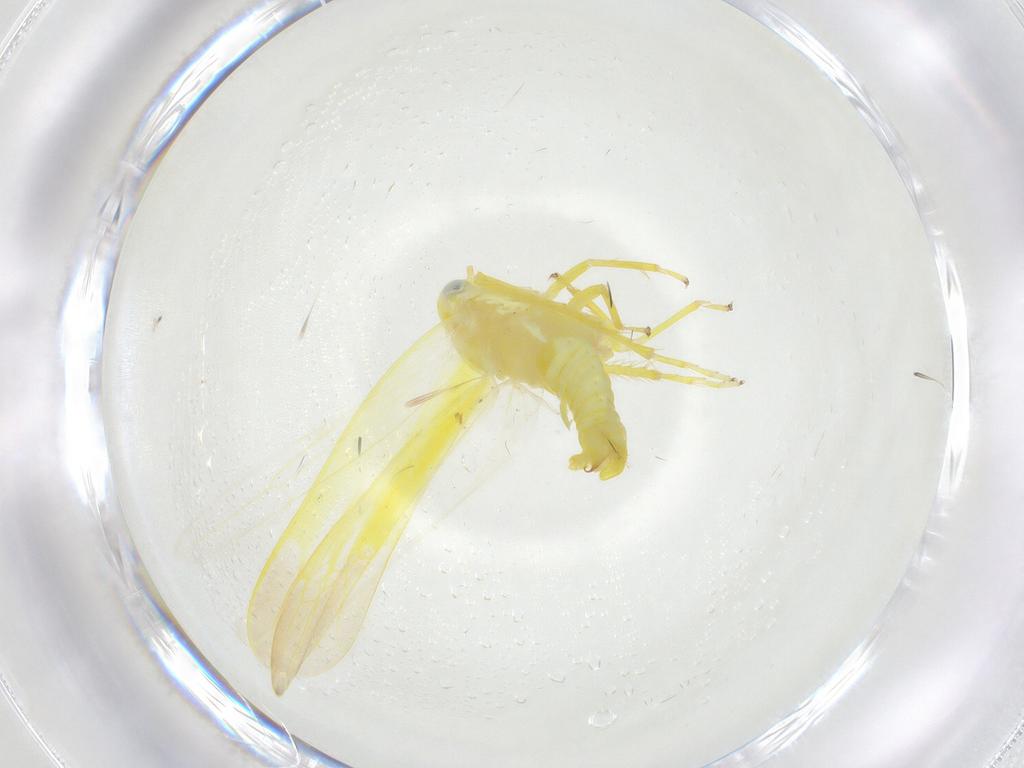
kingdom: Animalia
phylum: Arthropoda
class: Insecta
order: Hemiptera
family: Cicadellidae
